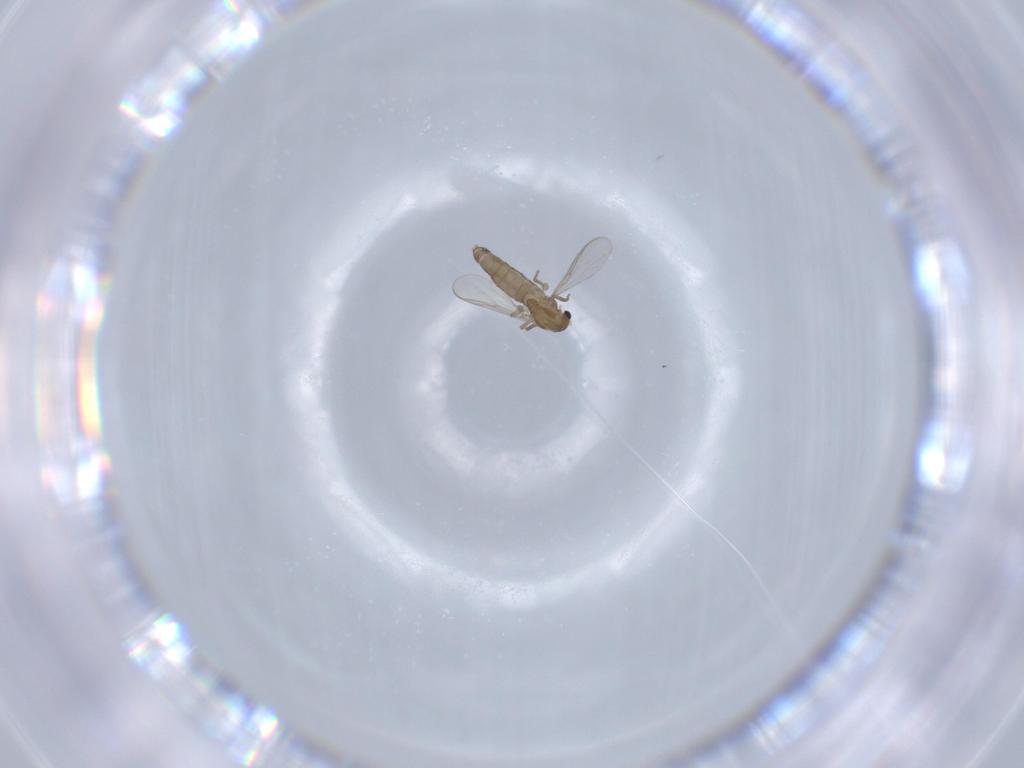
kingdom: Animalia
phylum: Arthropoda
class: Insecta
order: Diptera
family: Chironomidae
